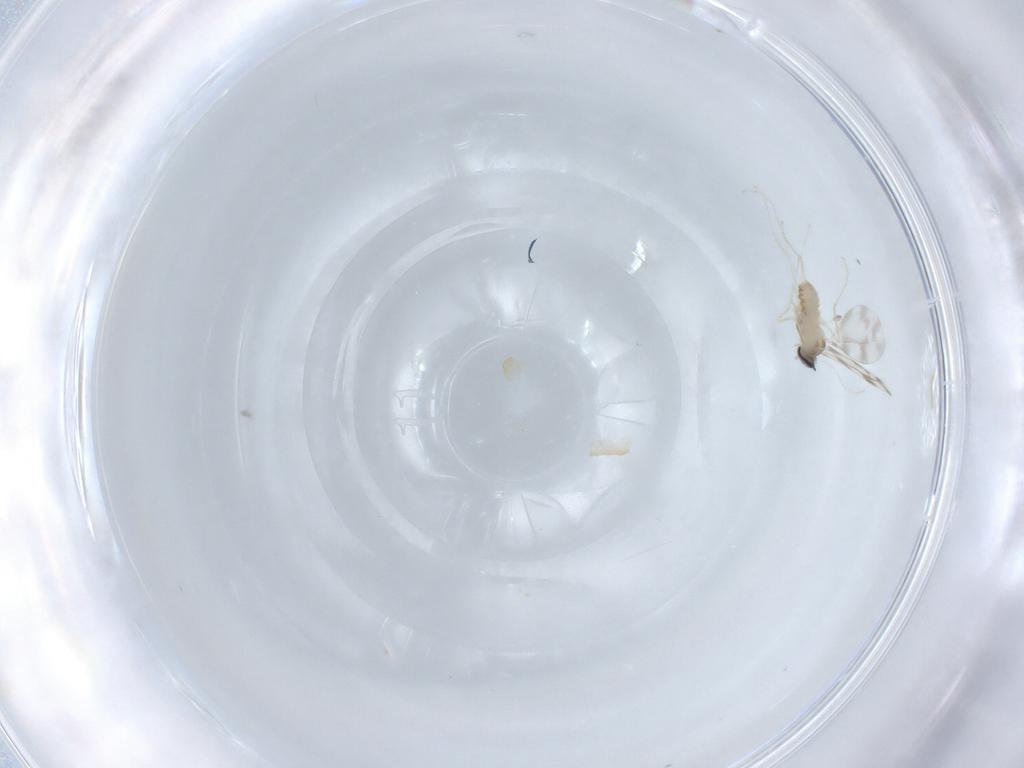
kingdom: Animalia
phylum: Arthropoda
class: Insecta
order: Diptera
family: Cecidomyiidae
